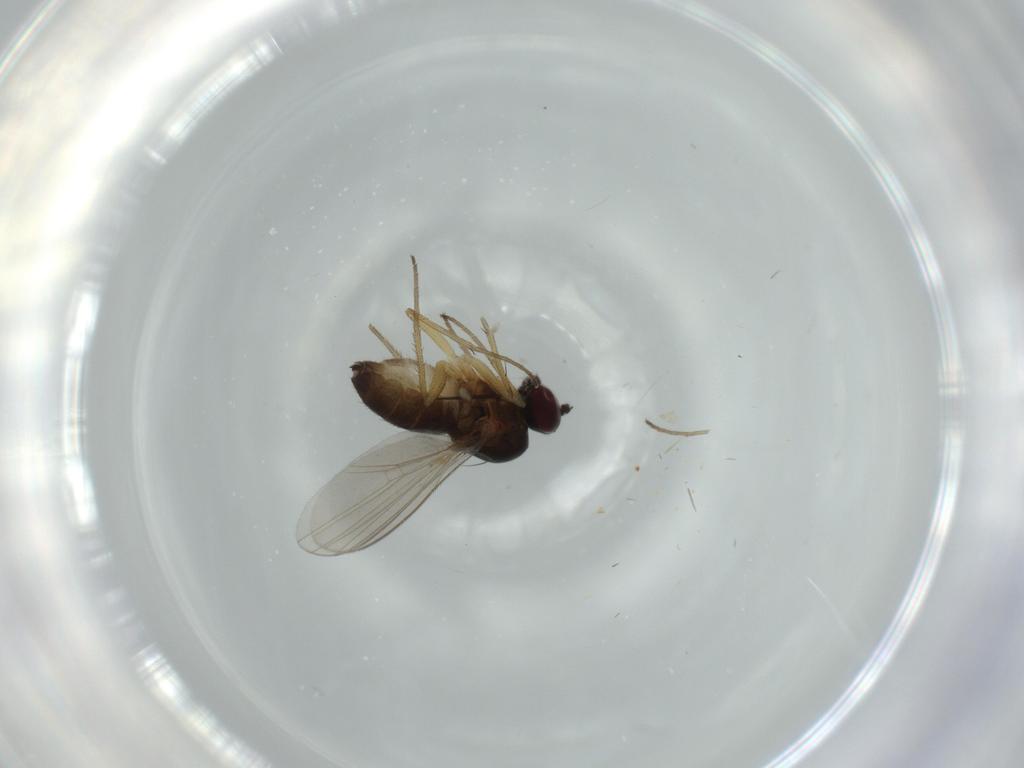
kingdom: Animalia
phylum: Arthropoda
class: Insecta
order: Diptera
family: Dolichopodidae
